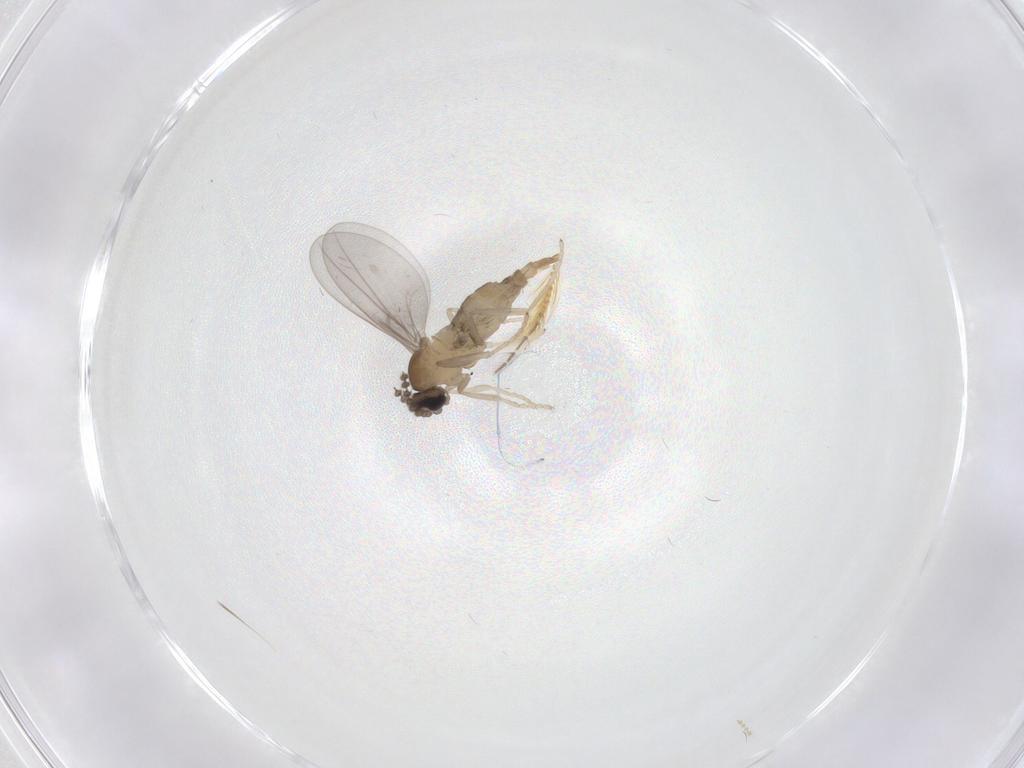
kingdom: Animalia
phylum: Arthropoda
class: Insecta
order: Diptera
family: Cecidomyiidae
